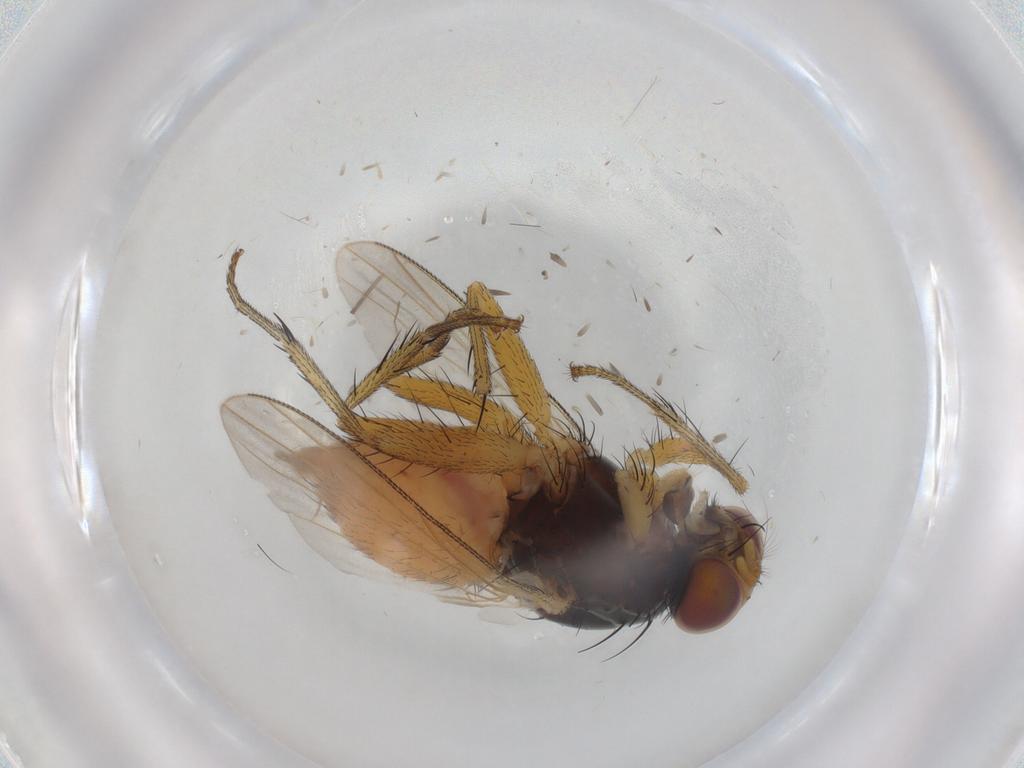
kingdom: Animalia
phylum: Arthropoda
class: Insecta
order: Diptera
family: Muscidae
